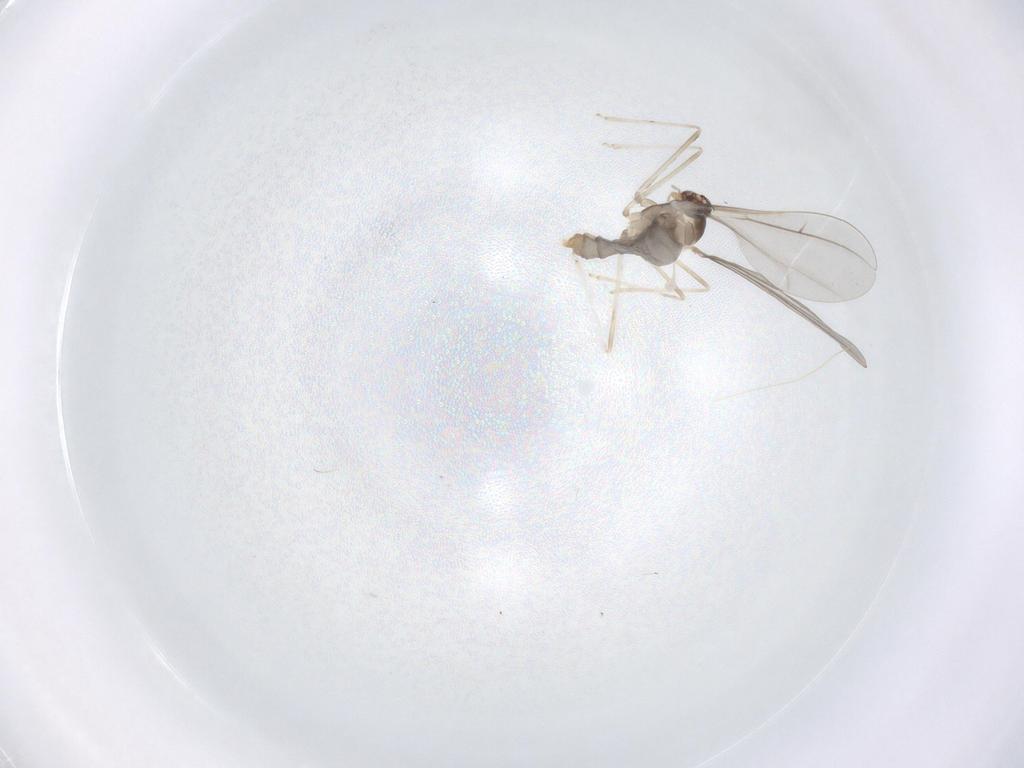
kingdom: Animalia
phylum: Arthropoda
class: Insecta
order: Diptera
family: Cecidomyiidae
